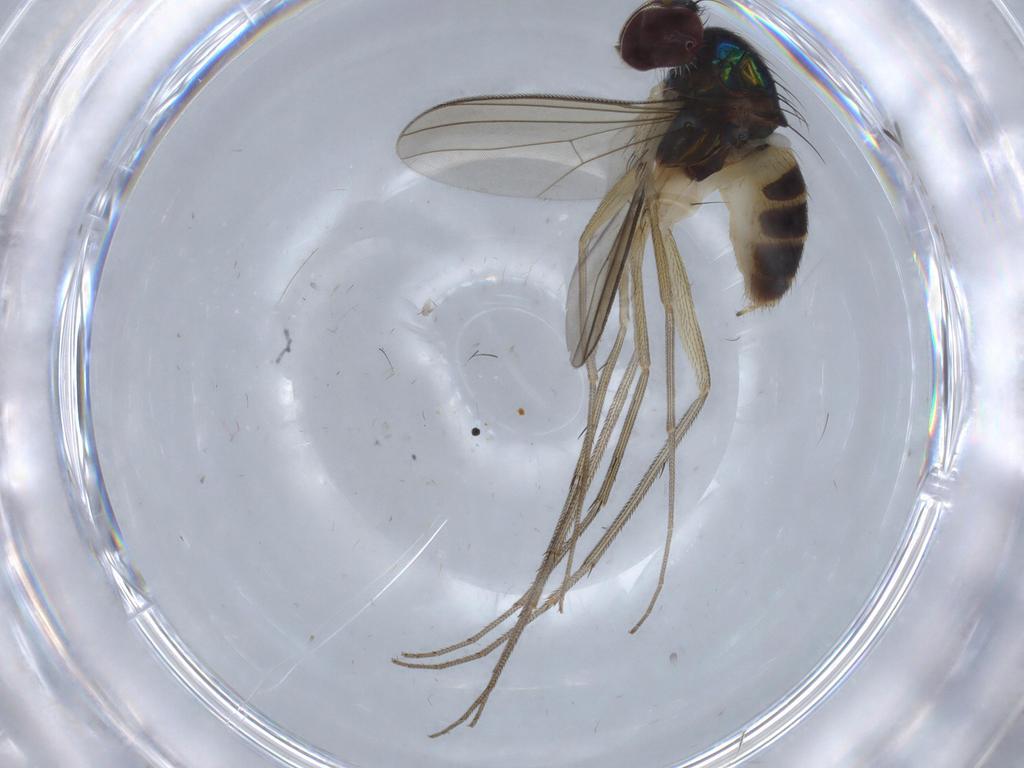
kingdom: Animalia
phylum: Arthropoda
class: Insecta
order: Diptera
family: Dolichopodidae
